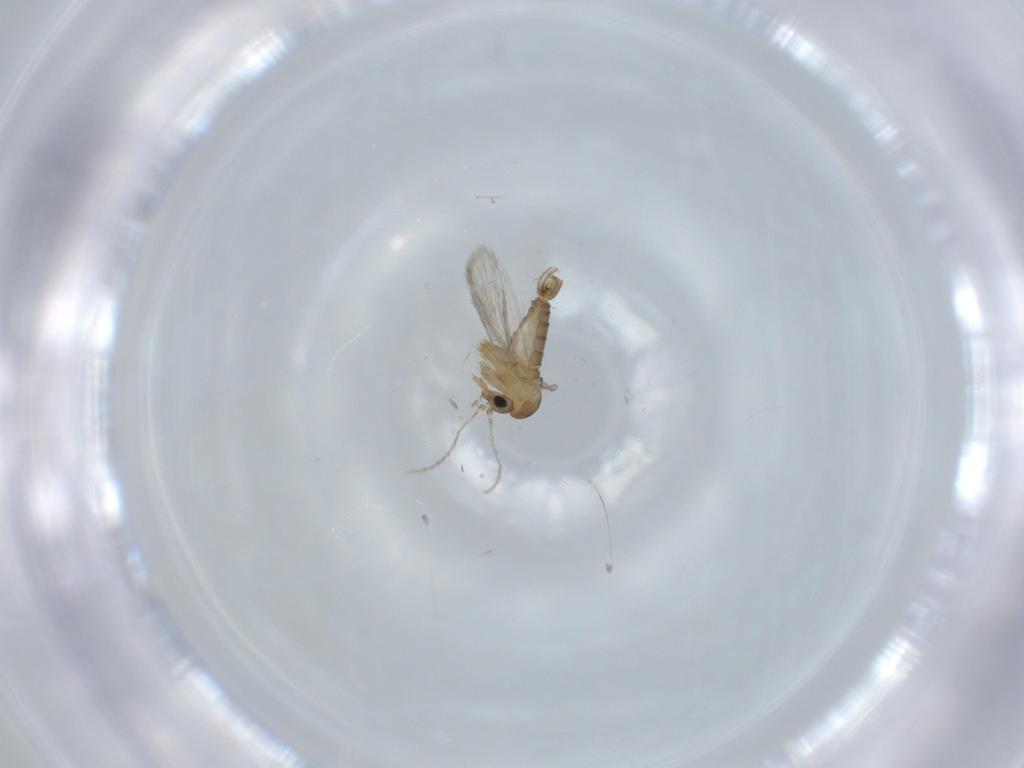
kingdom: Animalia
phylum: Arthropoda
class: Insecta
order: Diptera
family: Psychodidae
